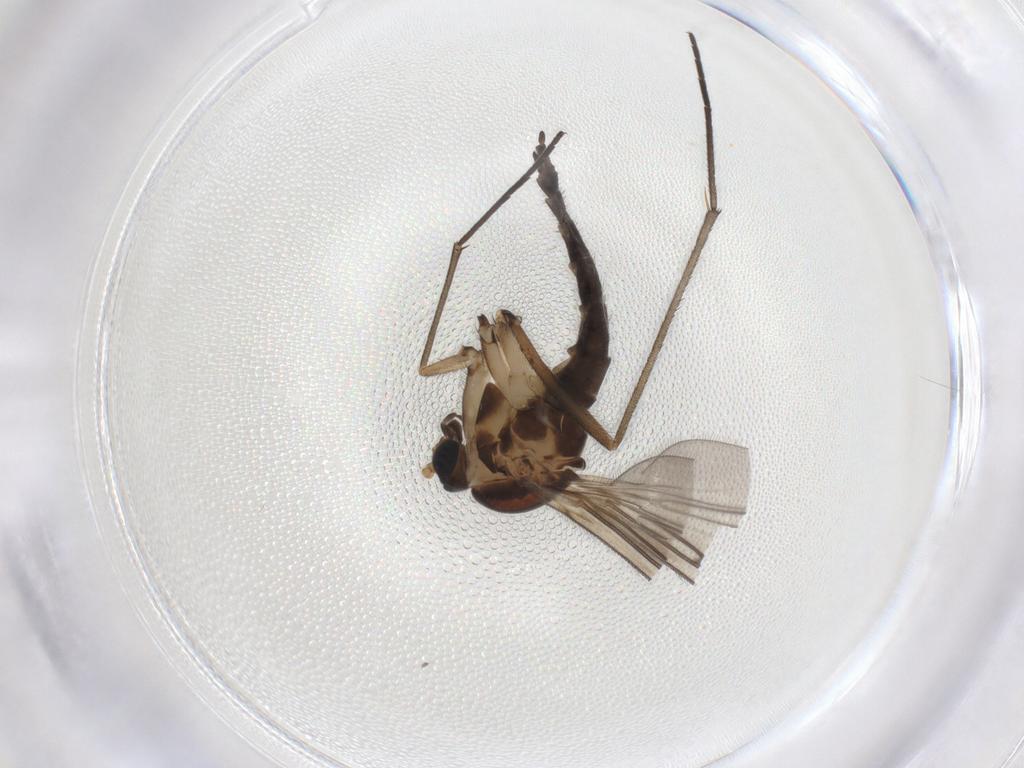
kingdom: Animalia
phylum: Arthropoda
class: Insecta
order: Diptera
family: Sciaridae
